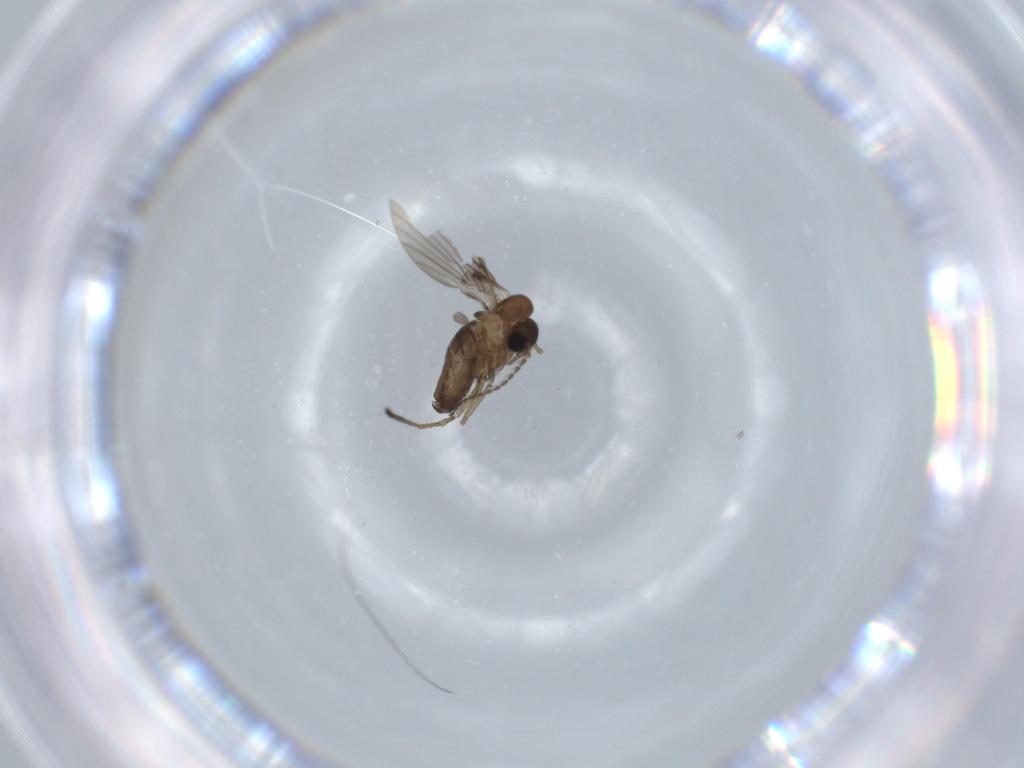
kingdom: Animalia
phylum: Arthropoda
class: Insecta
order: Diptera
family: Psychodidae
